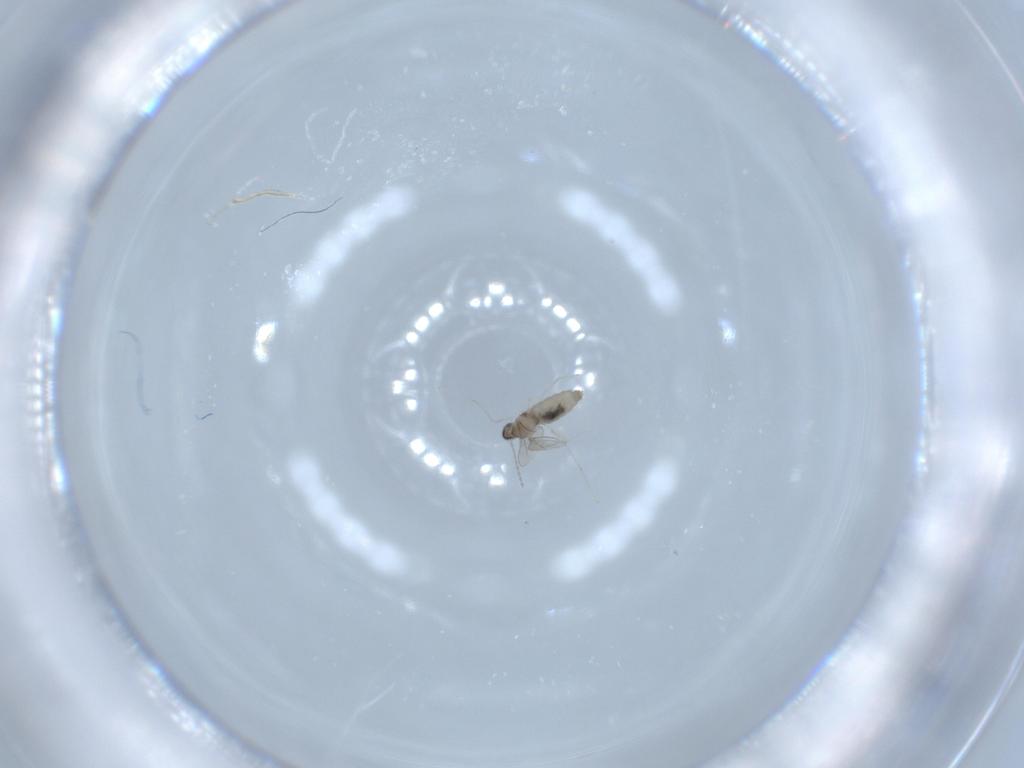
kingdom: Animalia
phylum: Arthropoda
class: Insecta
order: Diptera
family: Cecidomyiidae
